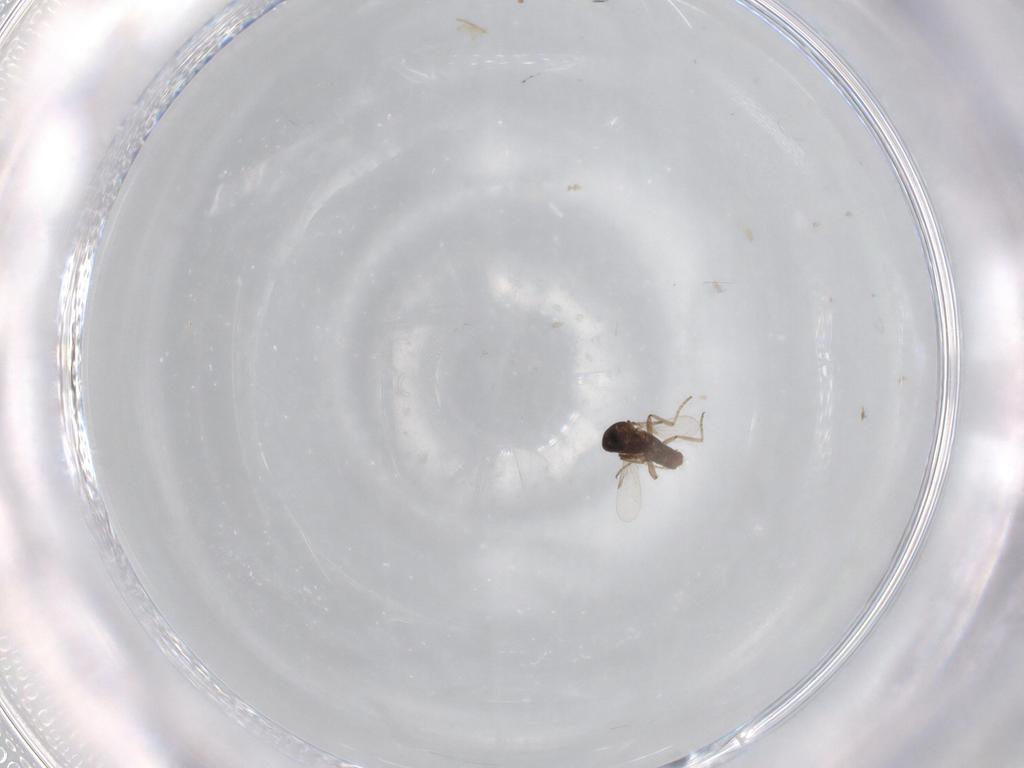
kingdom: Animalia
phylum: Arthropoda
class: Insecta
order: Diptera
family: Ceratopogonidae
